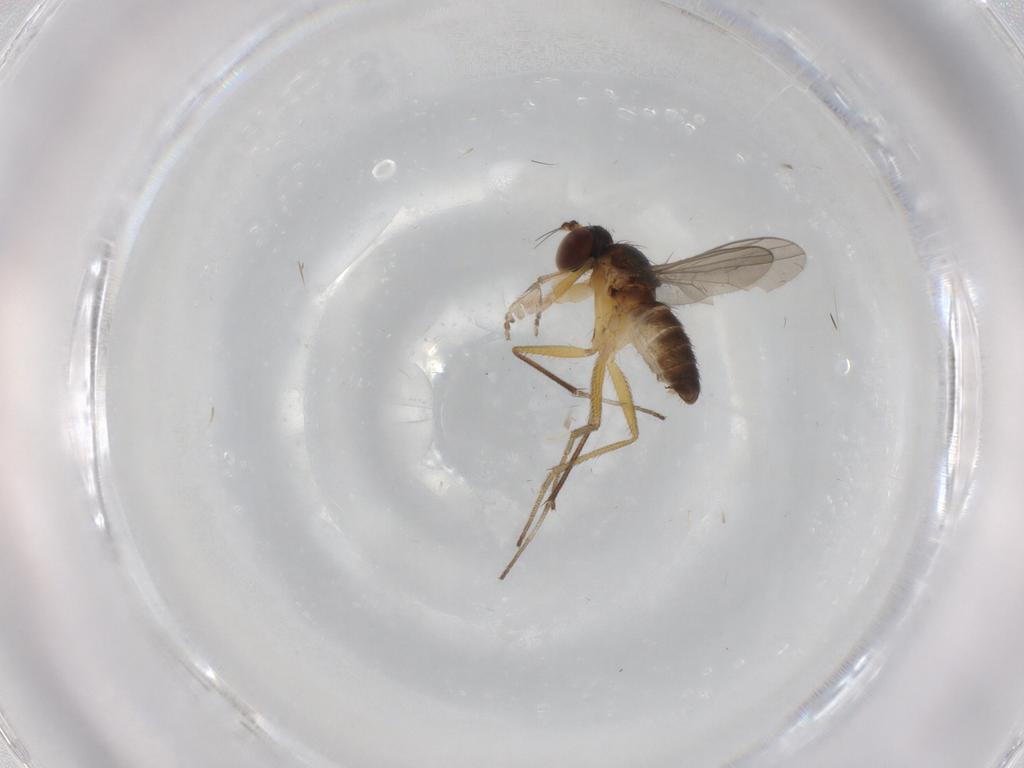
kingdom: Animalia
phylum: Arthropoda
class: Insecta
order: Diptera
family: Dolichopodidae
